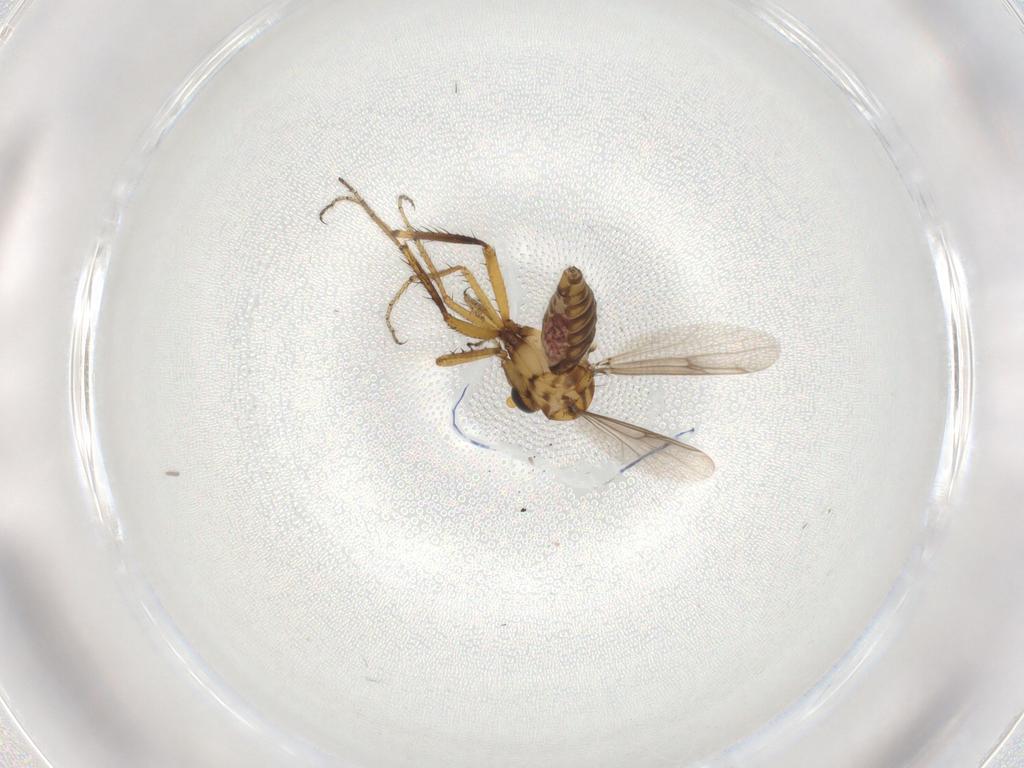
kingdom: Animalia
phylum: Arthropoda
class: Insecta
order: Diptera
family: Ceratopogonidae
